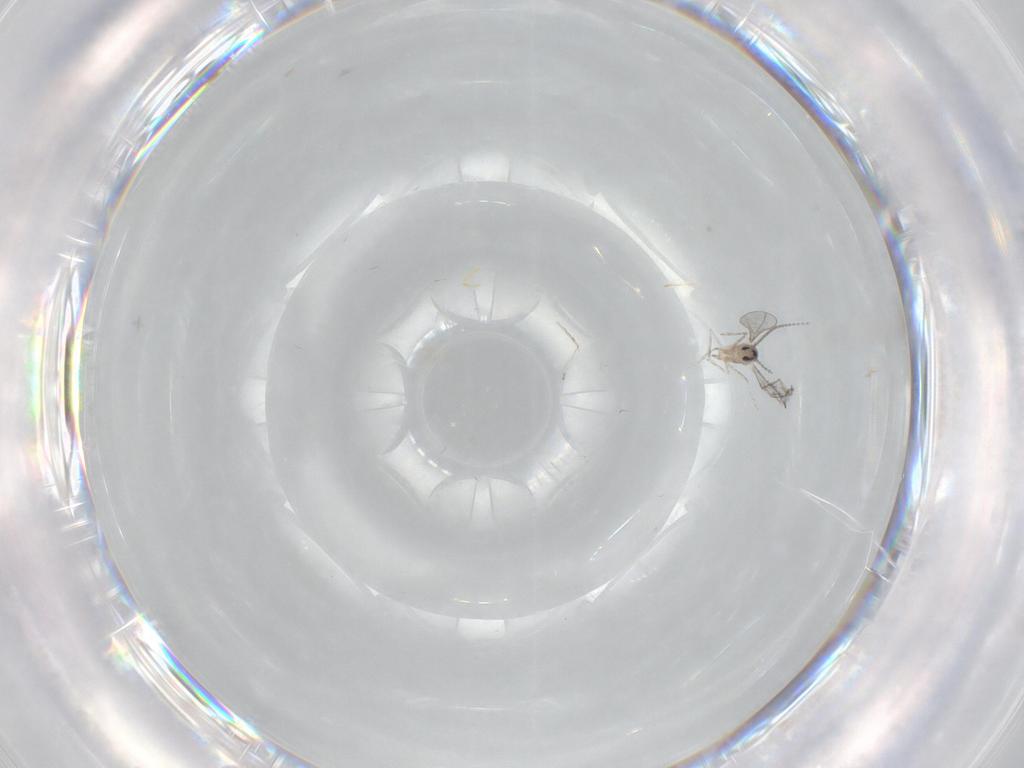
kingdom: Animalia
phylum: Arthropoda
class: Insecta
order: Diptera
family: Cecidomyiidae
